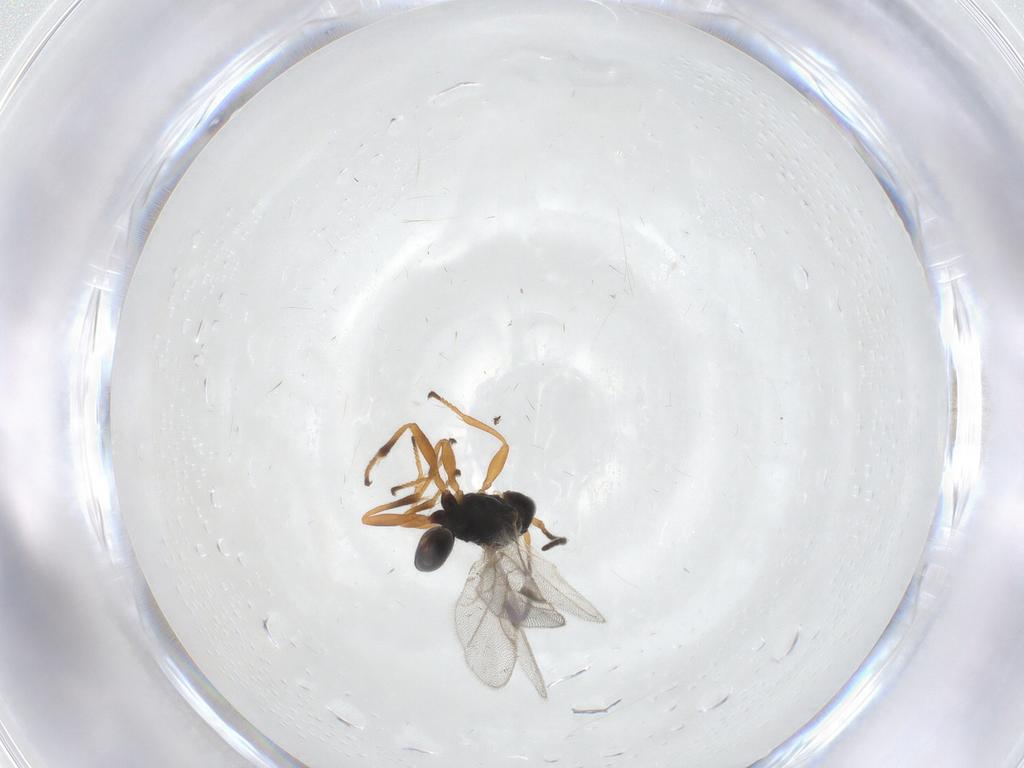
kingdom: Animalia
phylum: Arthropoda
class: Insecta
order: Hymenoptera
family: Braconidae
